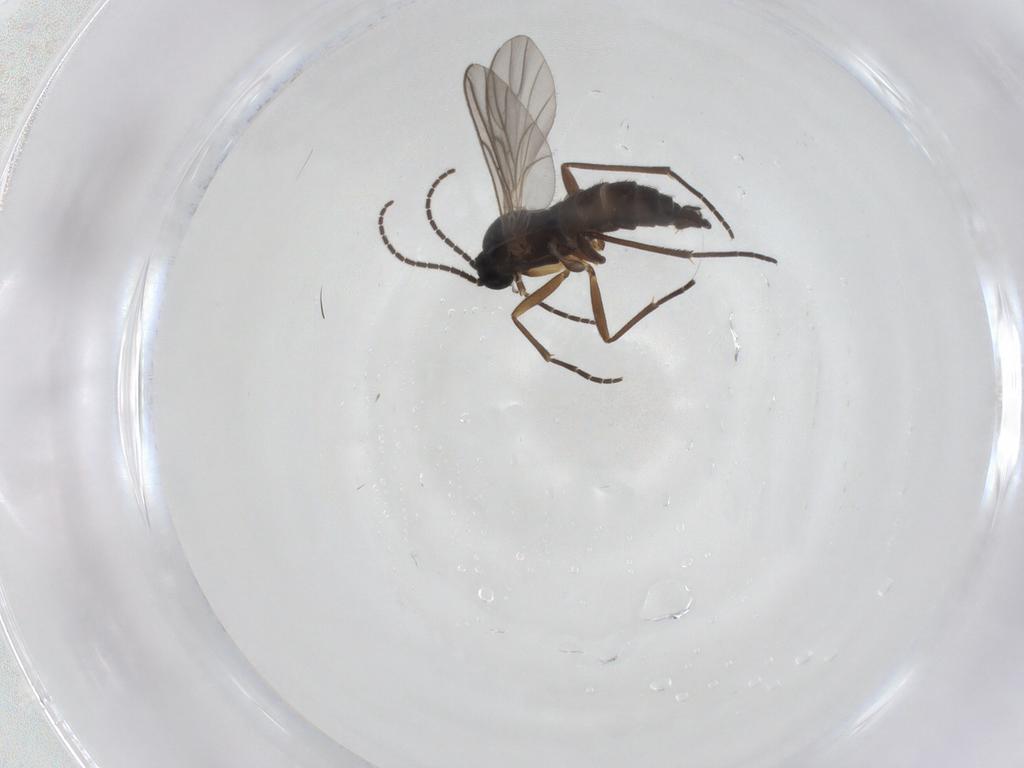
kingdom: Animalia
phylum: Arthropoda
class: Insecta
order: Diptera
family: Sciaridae
